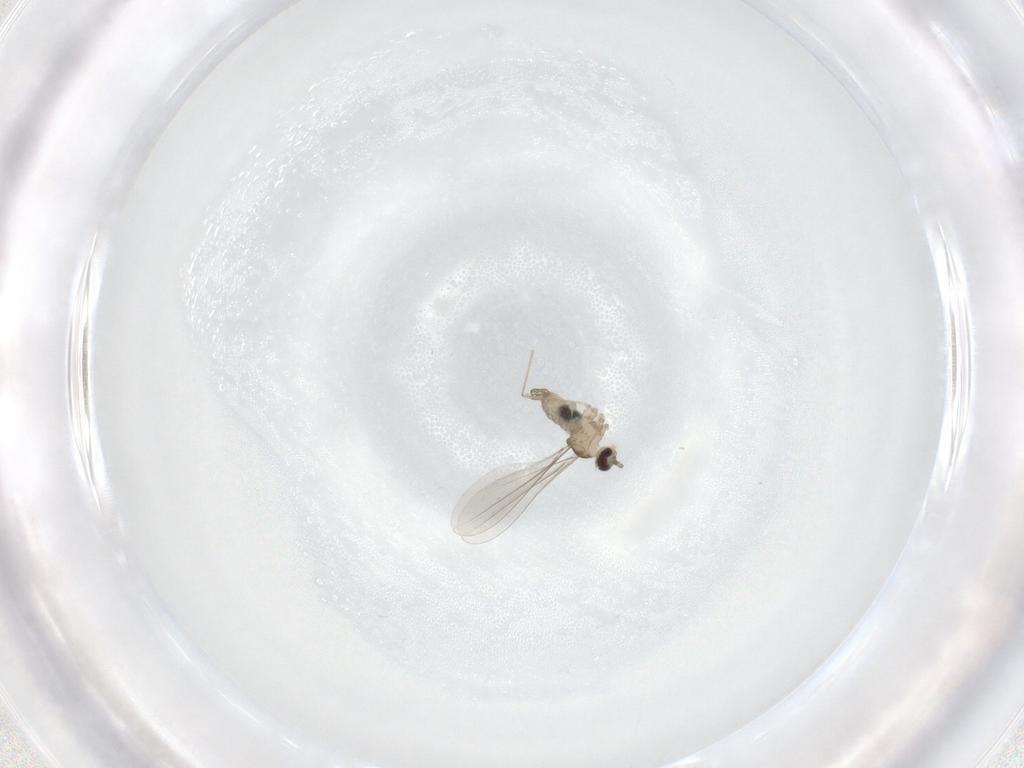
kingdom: Animalia
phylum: Arthropoda
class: Insecta
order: Diptera
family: Cecidomyiidae
